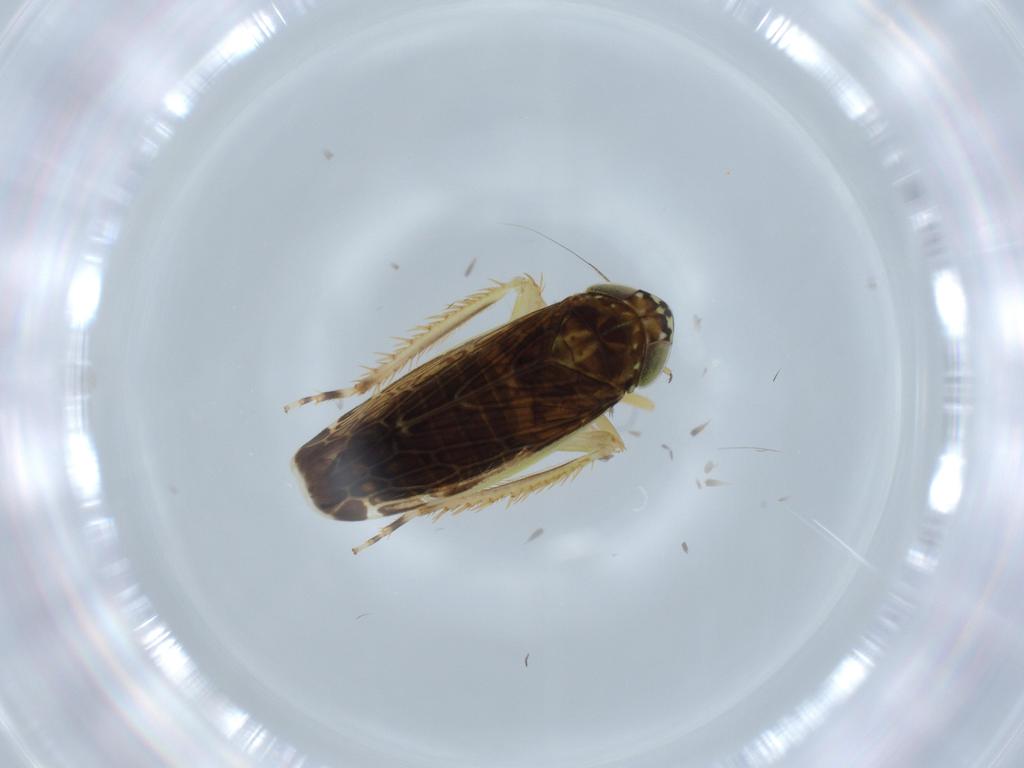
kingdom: Animalia
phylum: Arthropoda
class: Insecta
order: Hemiptera
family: Cicadellidae
